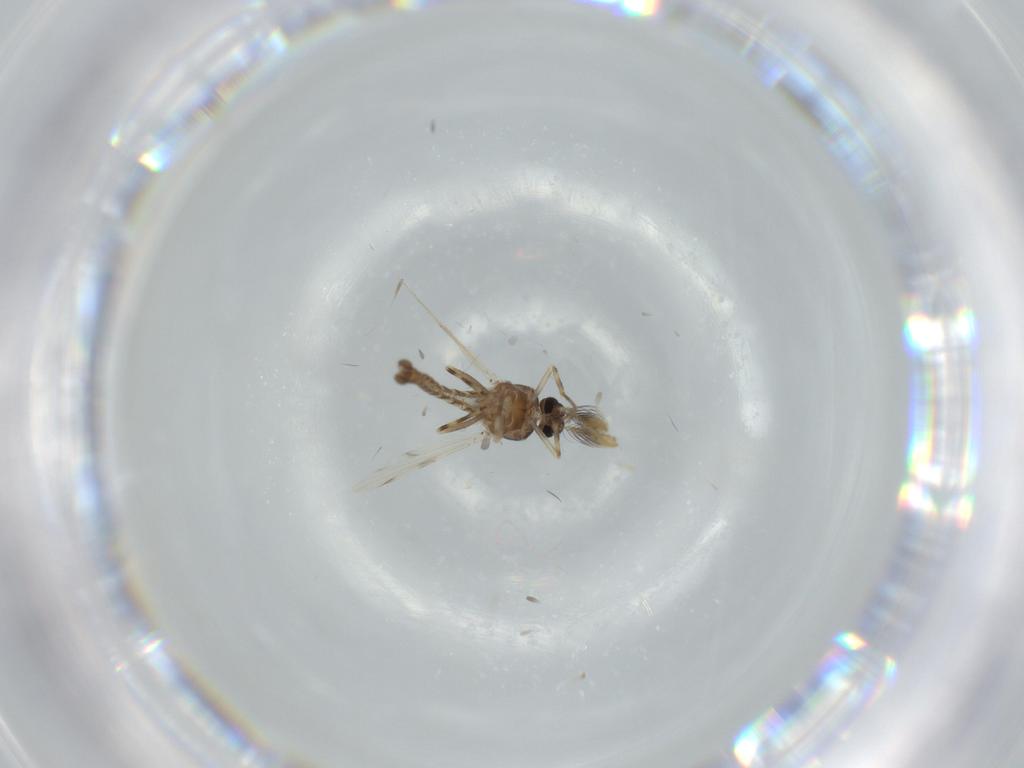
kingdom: Animalia
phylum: Arthropoda
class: Insecta
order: Diptera
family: Ceratopogonidae
